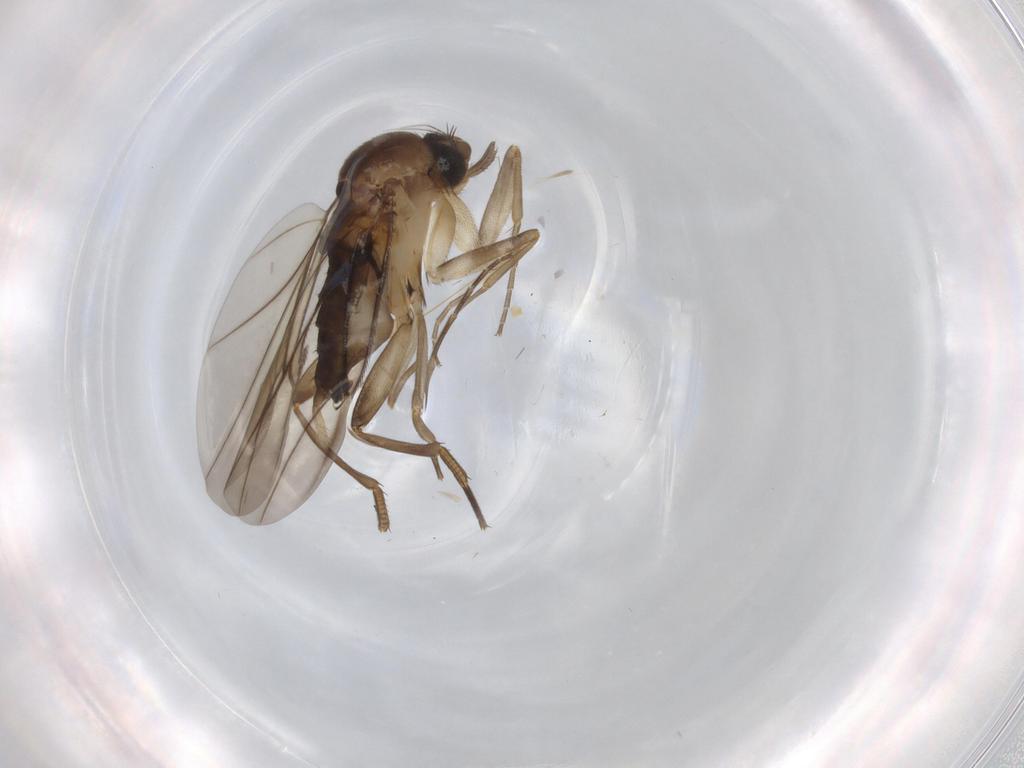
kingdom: Animalia
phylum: Arthropoda
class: Insecta
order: Diptera
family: Phoridae
